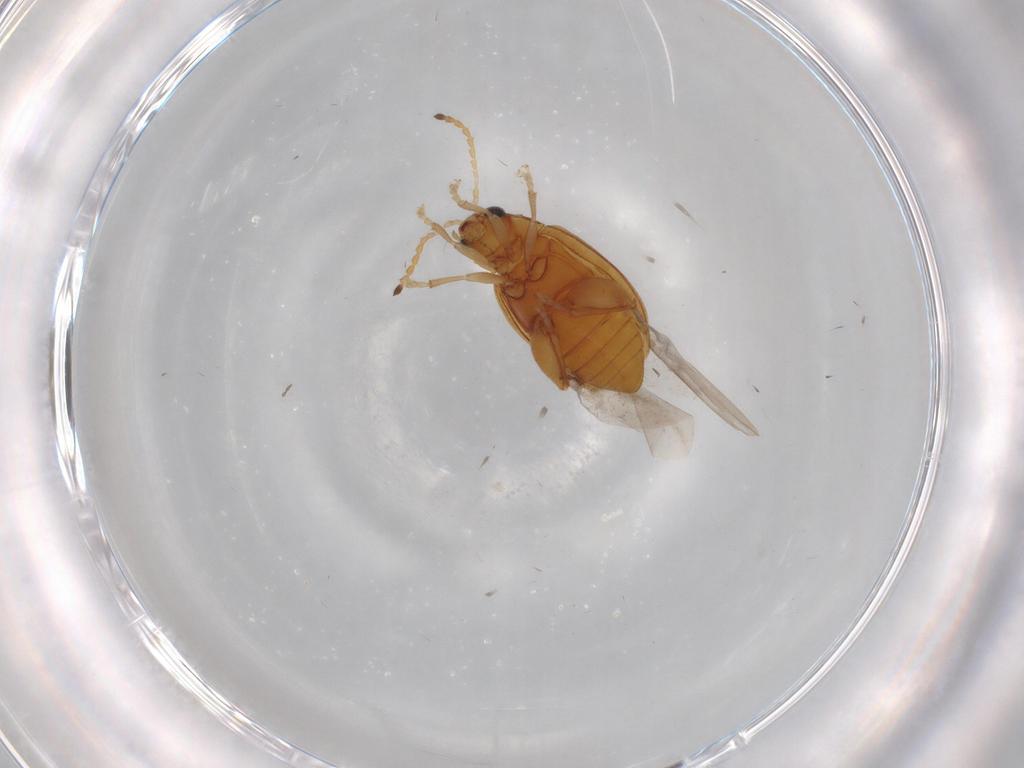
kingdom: Animalia
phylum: Arthropoda
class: Insecta
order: Coleoptera
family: Chrysomelidae
